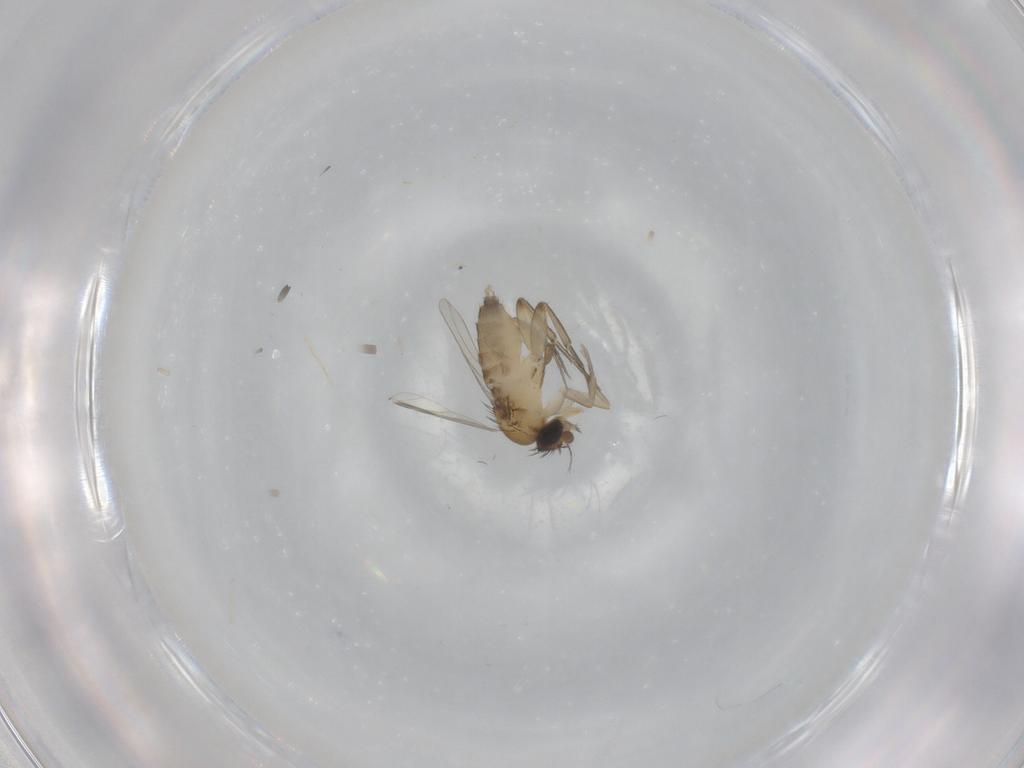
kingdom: Animalia
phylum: Arthropoda
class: Insecta
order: Diptera
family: Phoridae
